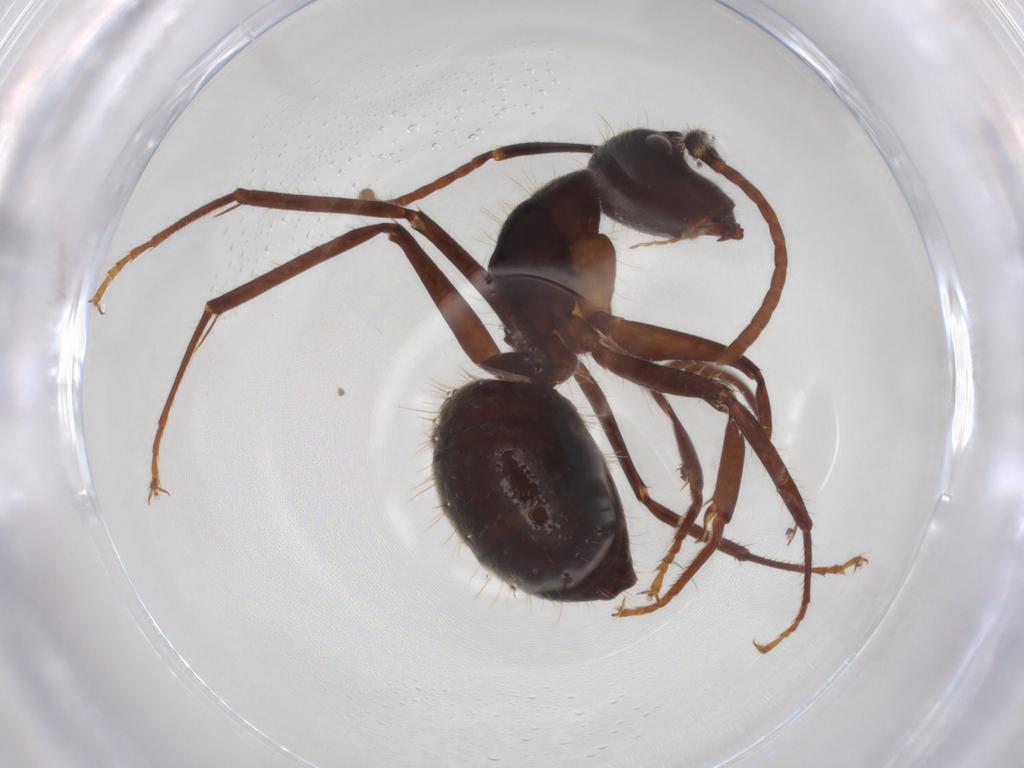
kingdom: Animalia
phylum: Arthropoda
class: Insecta
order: Hymenoptera
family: Formicidae
